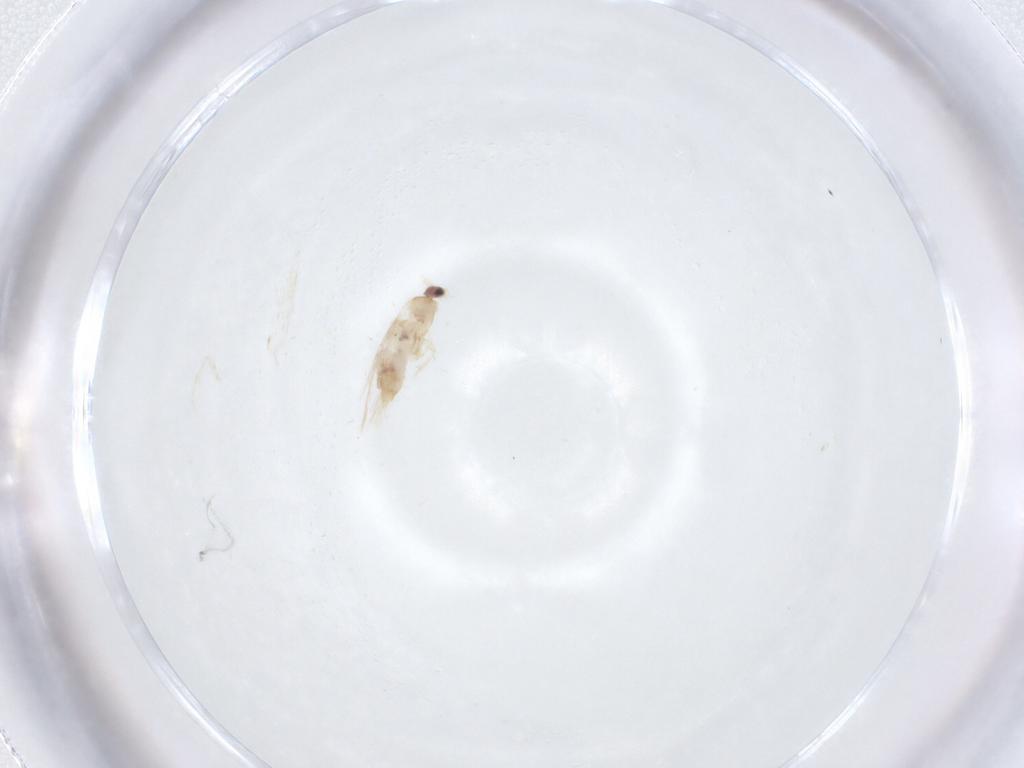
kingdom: Animalia
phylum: Arthropoda
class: Insecta
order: Lepidoptera
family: Nepticulidae
